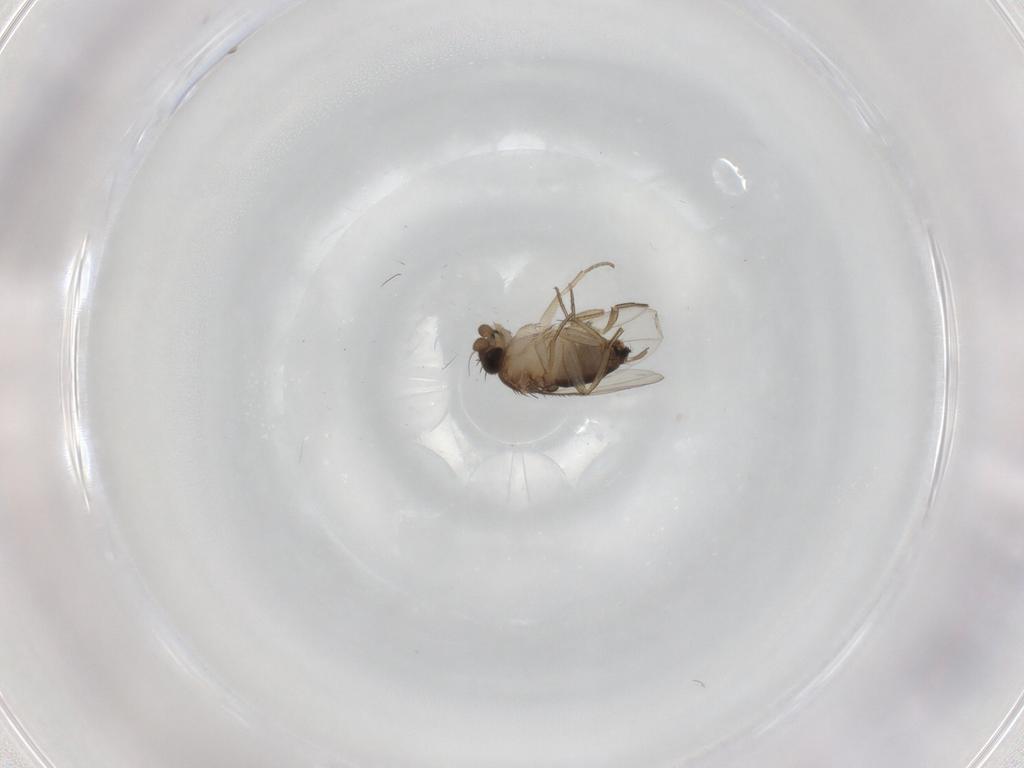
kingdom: Animalia
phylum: Arthropoda
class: Insecta
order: Diptera
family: Phoridae
